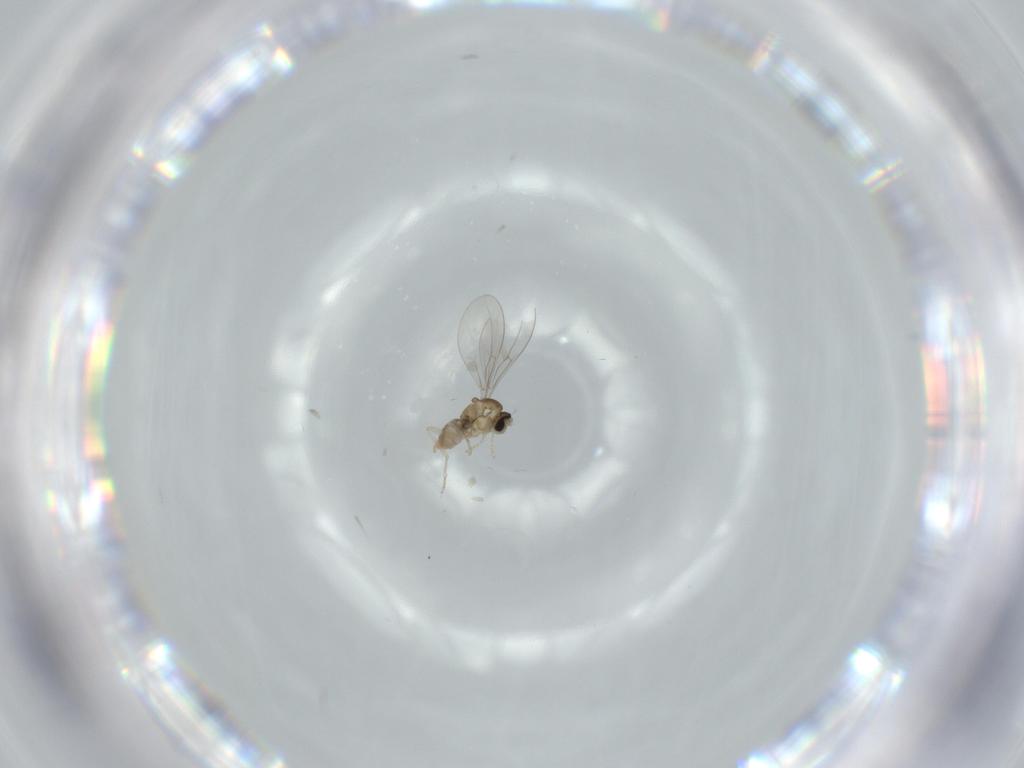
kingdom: Animalia
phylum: Arthropoda
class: Insecta
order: Diptera
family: Cecidomyiidae
